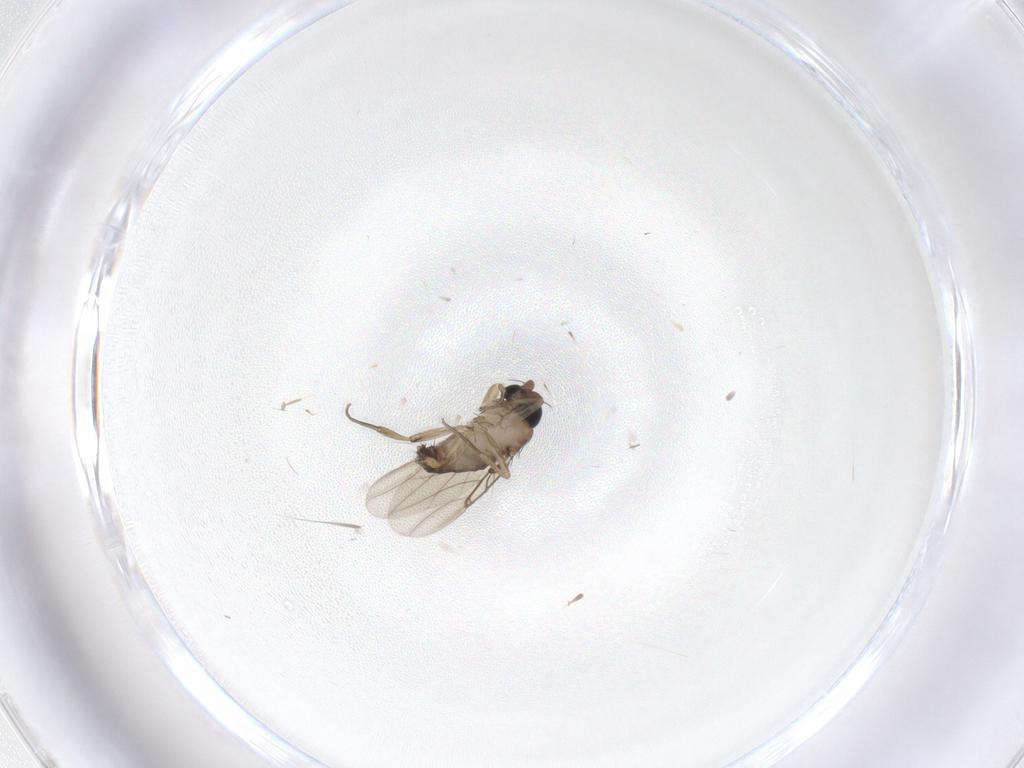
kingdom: Animalia
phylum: Arthropoda
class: Insecta
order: Diptera
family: Phoridae
